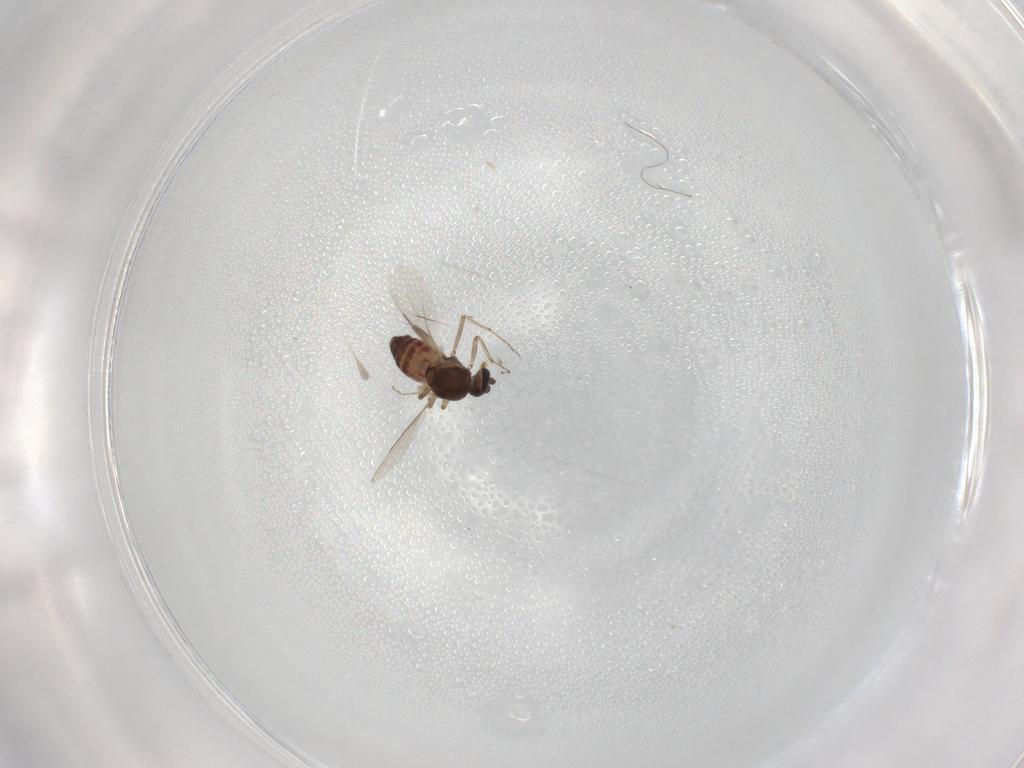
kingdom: Animalia
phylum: Arthropoda
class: Insecta
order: Diptera
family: Ceratopogonidae
